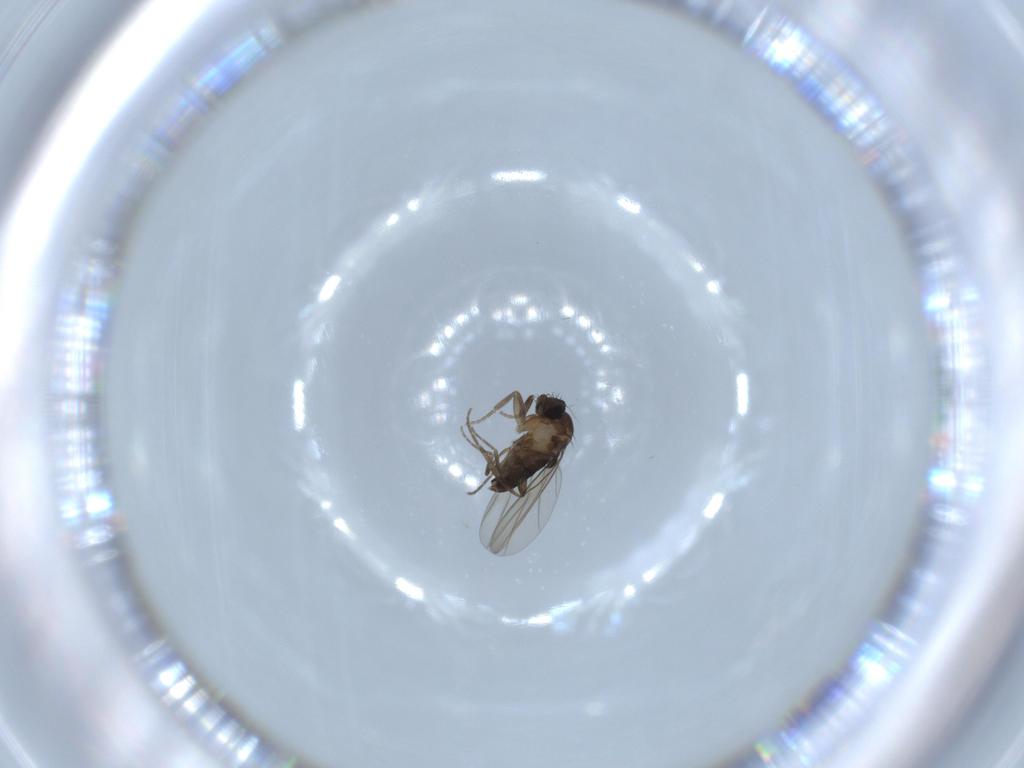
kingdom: Animalia
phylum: Arthropoda
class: Insecta
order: Diptera
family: Phoridae
